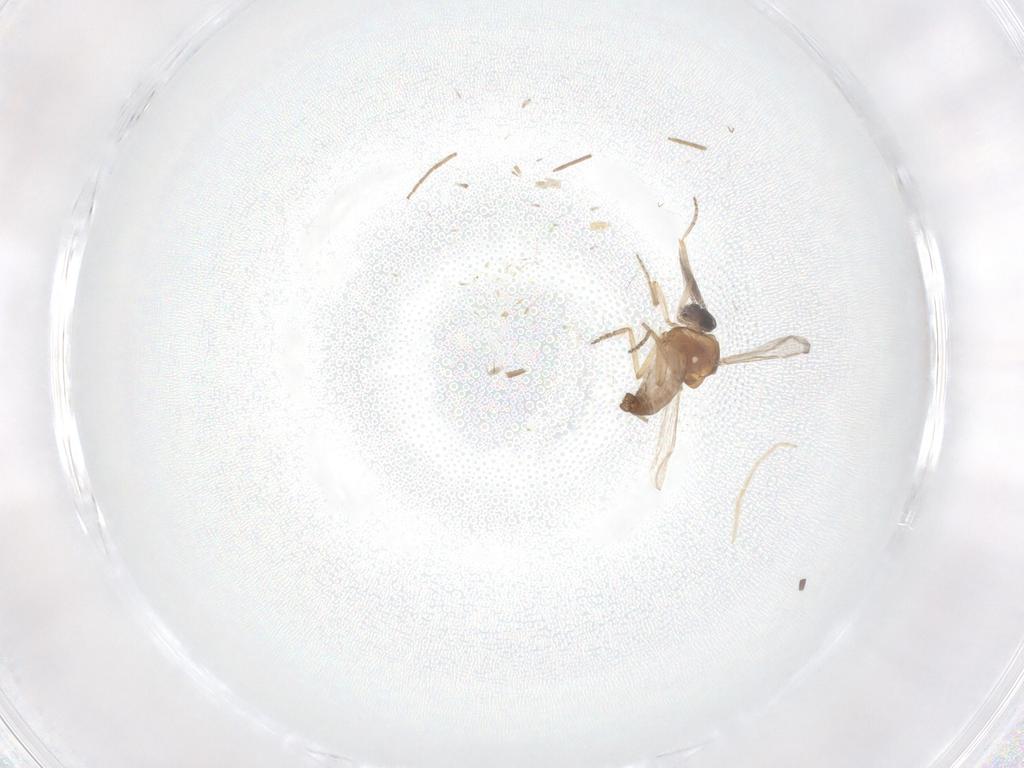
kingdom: Animalia
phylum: Arthropoda
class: Insecta
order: Diptera
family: Ceratopogonidae
